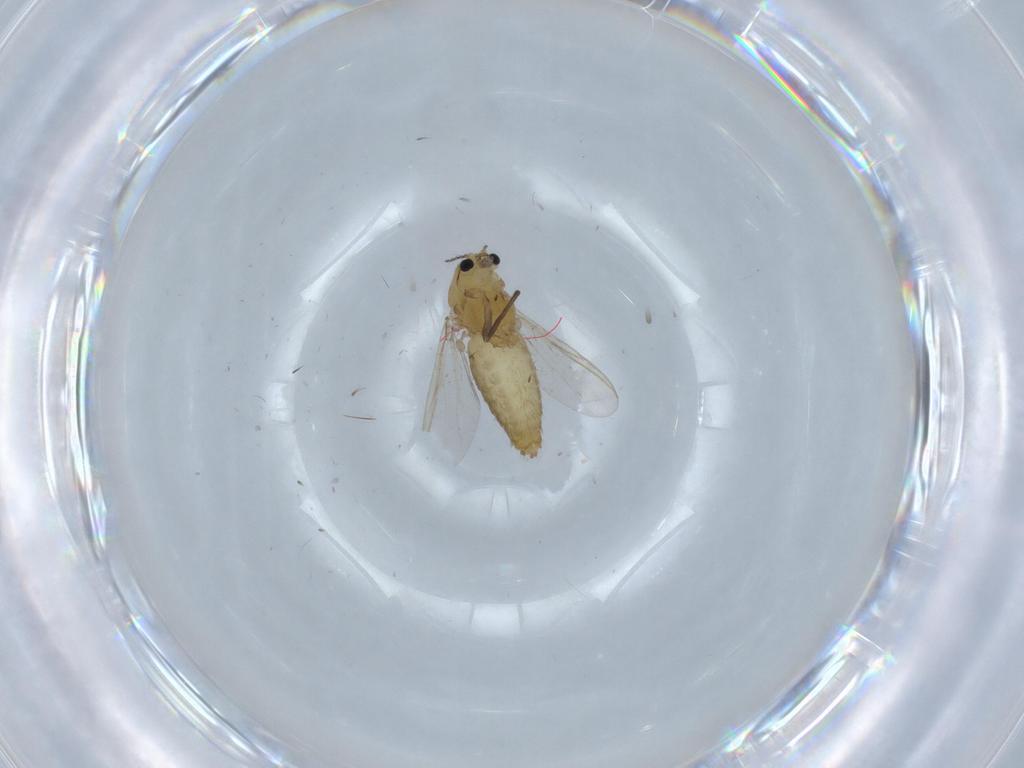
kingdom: Animalia
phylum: Arthropoda
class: Insecta
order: Diptera
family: Chironomidae
